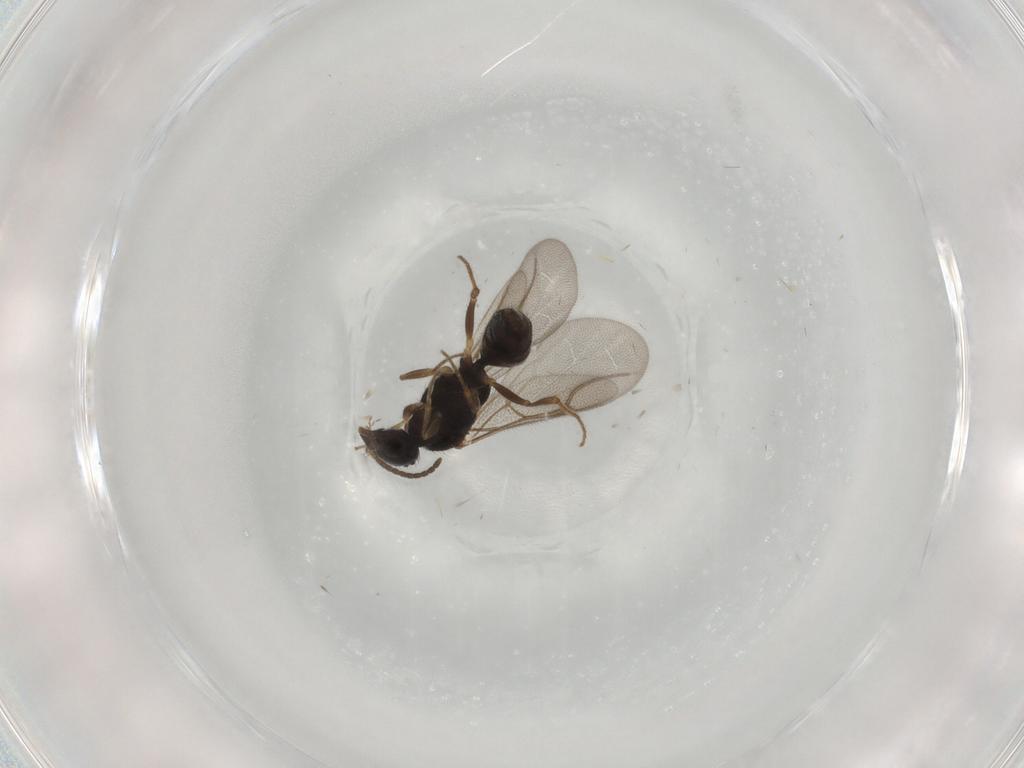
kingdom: Animalia
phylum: Arthropoda
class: Insecta
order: Hymenoptera
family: Bethylidae
